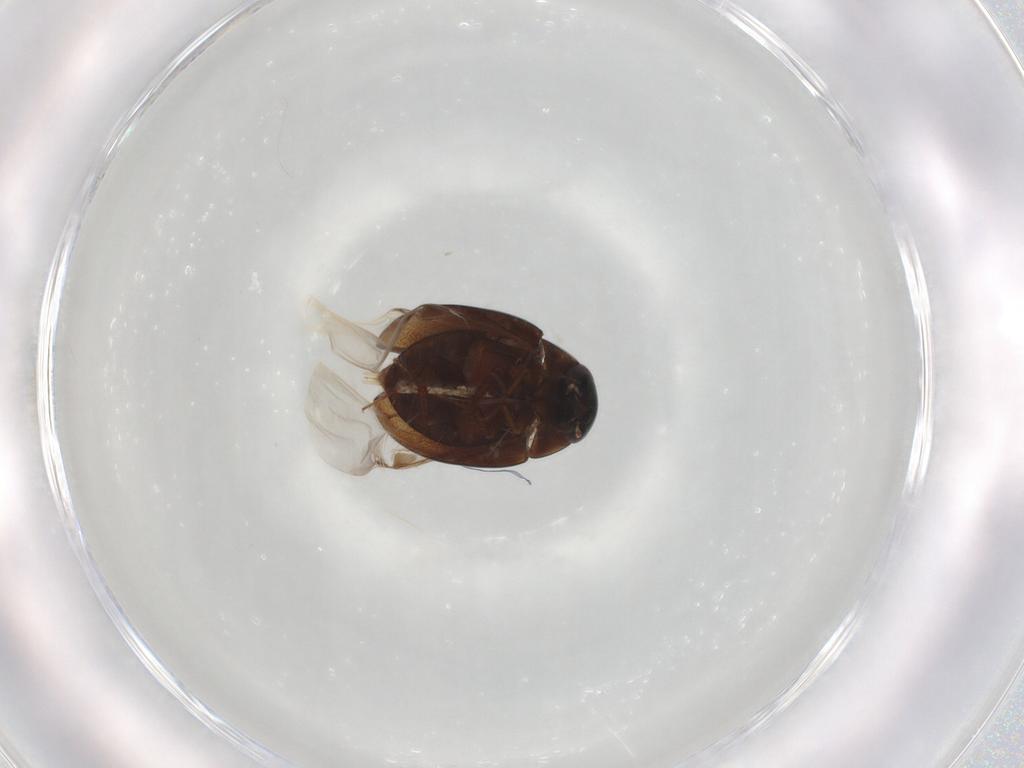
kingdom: Animalia
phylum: Arthropoda
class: Insecta
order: Coleoptera
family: Hydrophilidae
